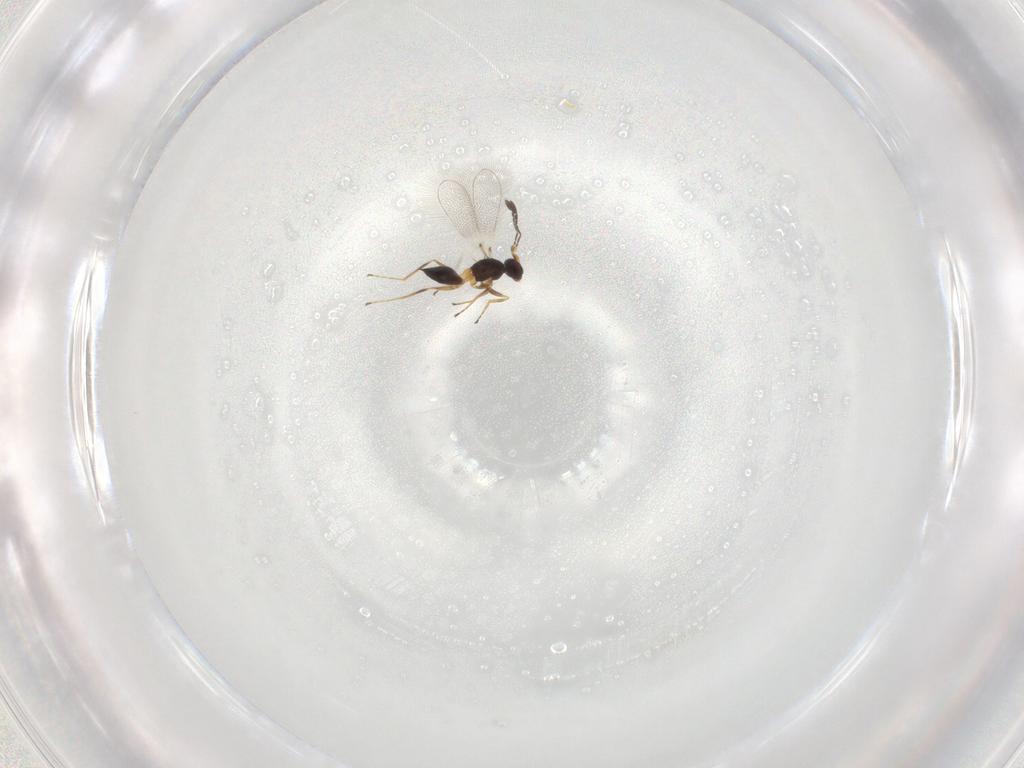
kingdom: Animalia
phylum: Arthropoda
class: Insecta
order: Hymenoptera
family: Mymaridae
